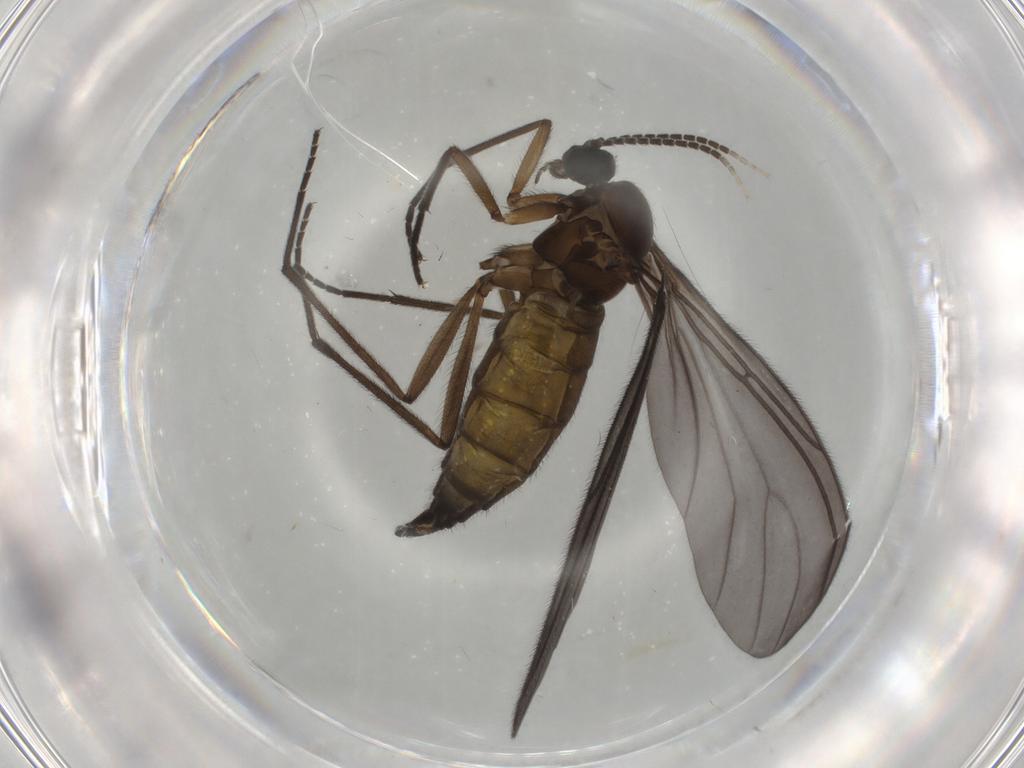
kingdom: Animalia
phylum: Arthropoda
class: Insecta
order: Diptera
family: Sciaridae
